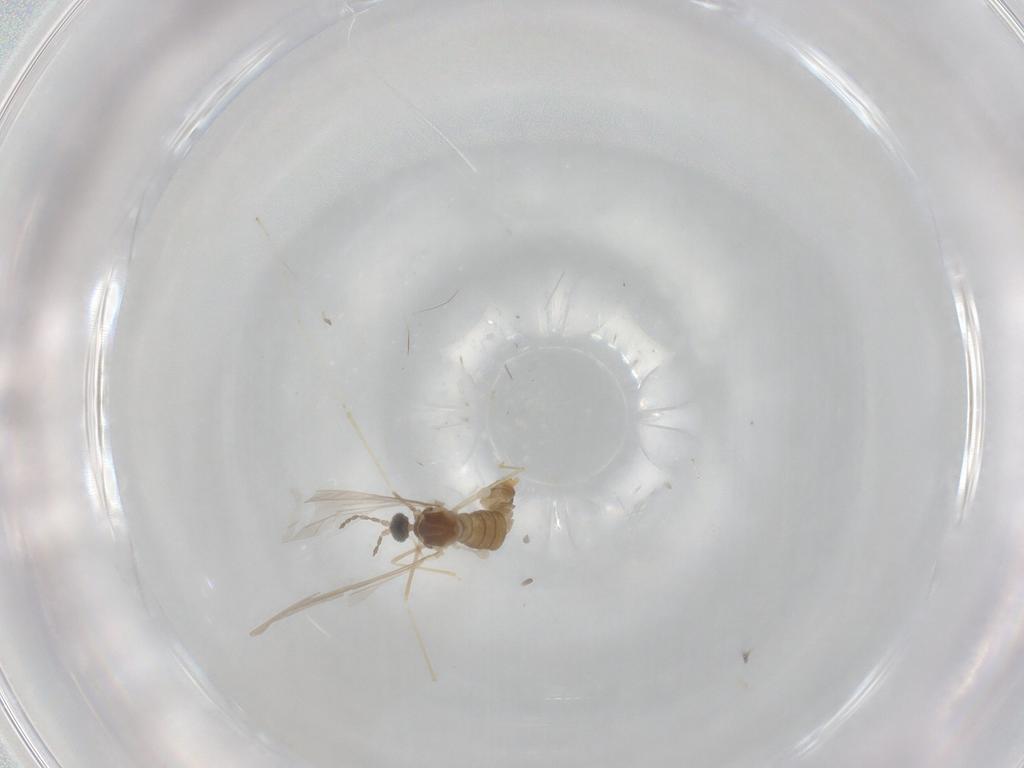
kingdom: Animalia
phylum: Arthropoda
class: Insecta
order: Diptera
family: Cecidomyiidae
